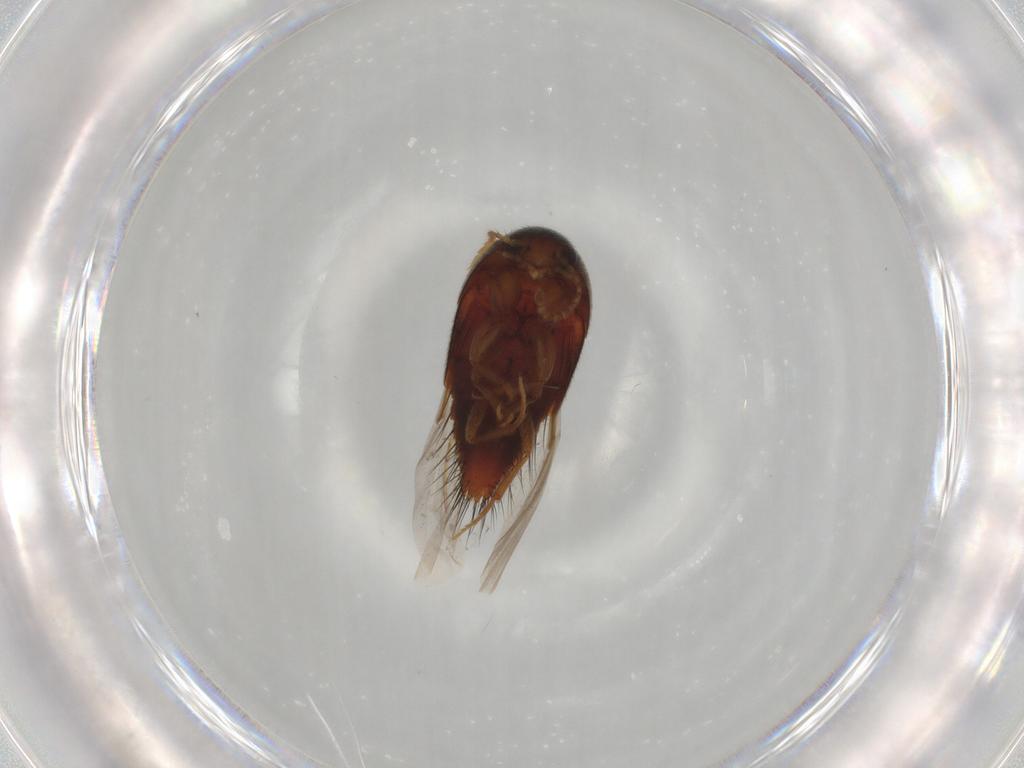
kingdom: Animalia
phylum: Arthropoda
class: Insecta
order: Coleoptera
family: Staphylinidae
